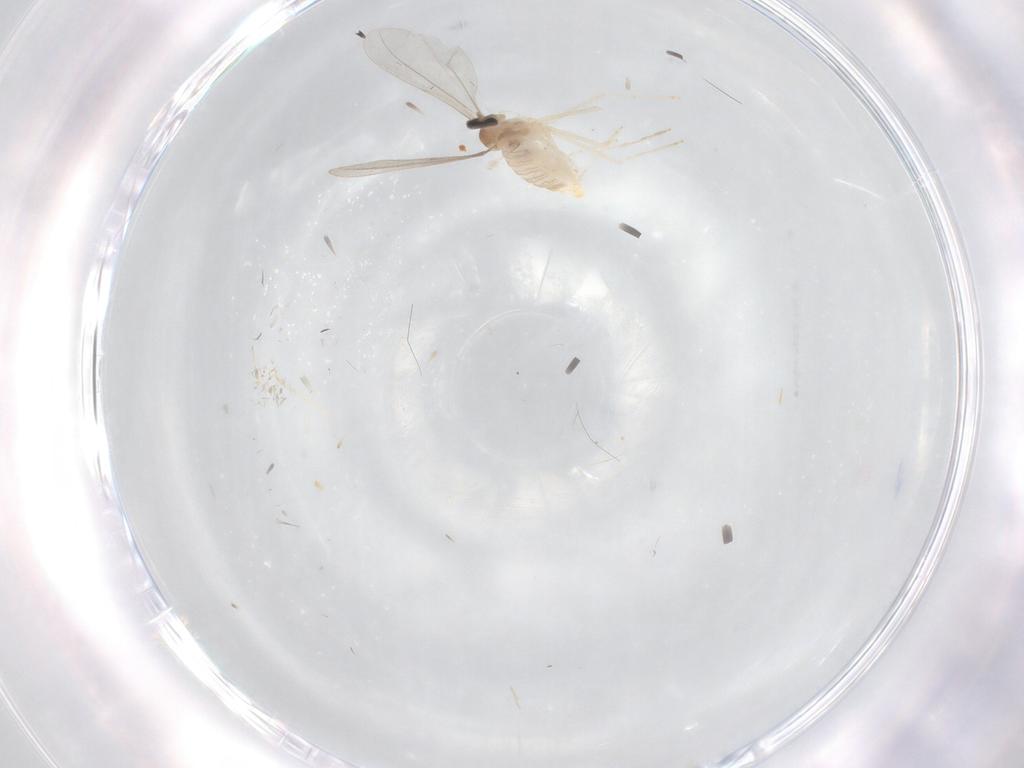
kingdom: Animalia
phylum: Arthropoda
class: Insecta
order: Diptera
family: Cecidomyiidae
